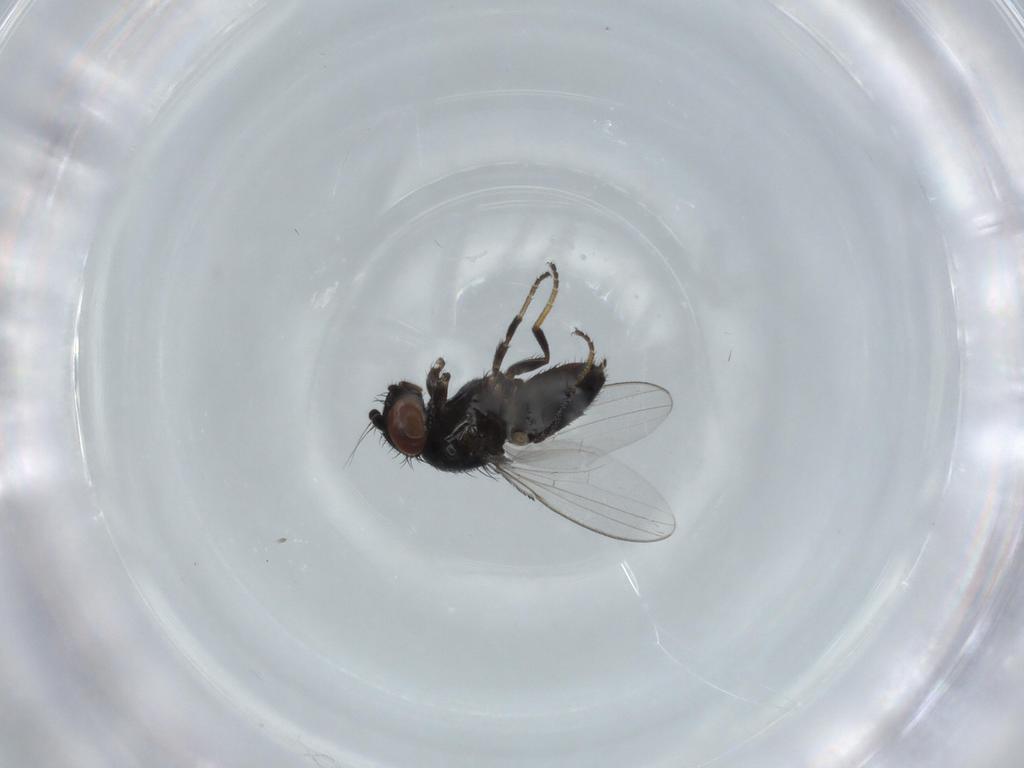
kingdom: Animalia
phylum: Arthropoda
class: Insecta
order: Diptera
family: Milichiidae
